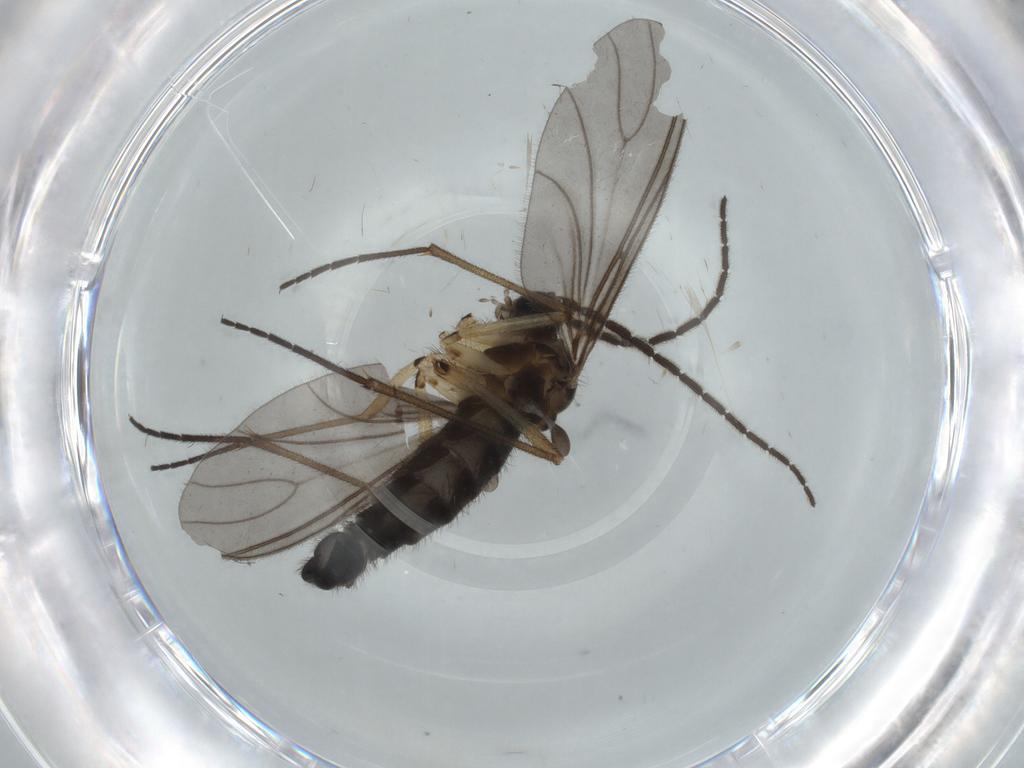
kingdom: Animalia
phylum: Arthropoda
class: Insecta
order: Diptera
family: Sciaridae
